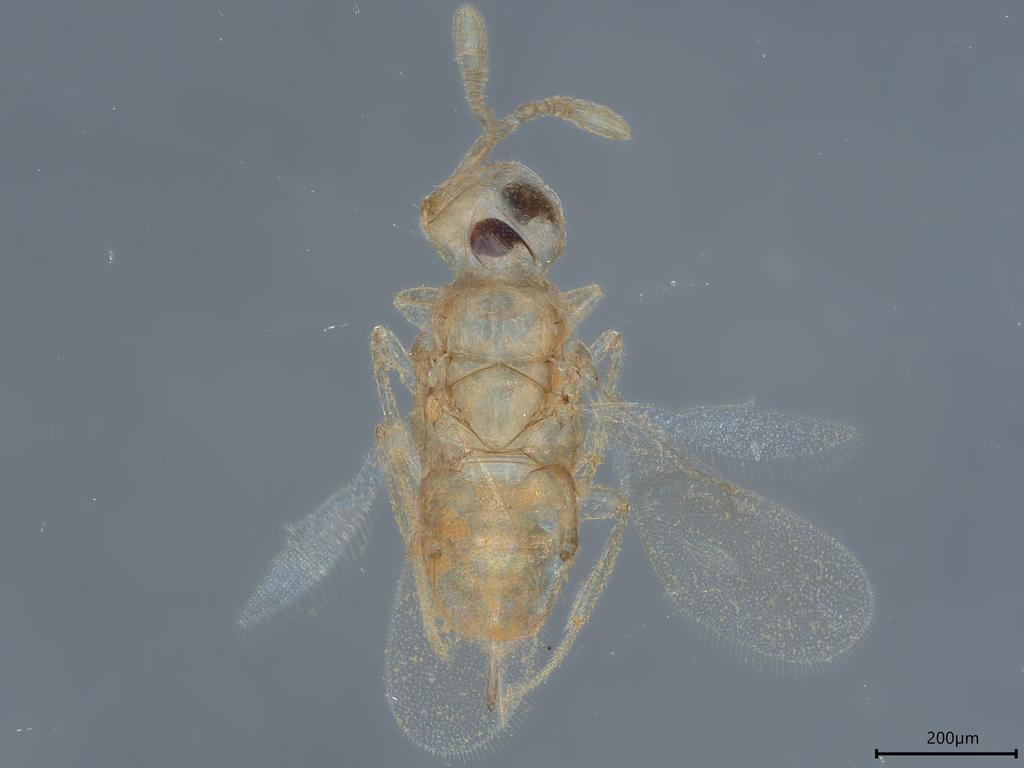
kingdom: Animalia
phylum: Arthropoda
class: Insecta
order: Hymenoptera
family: Encyrtidae
